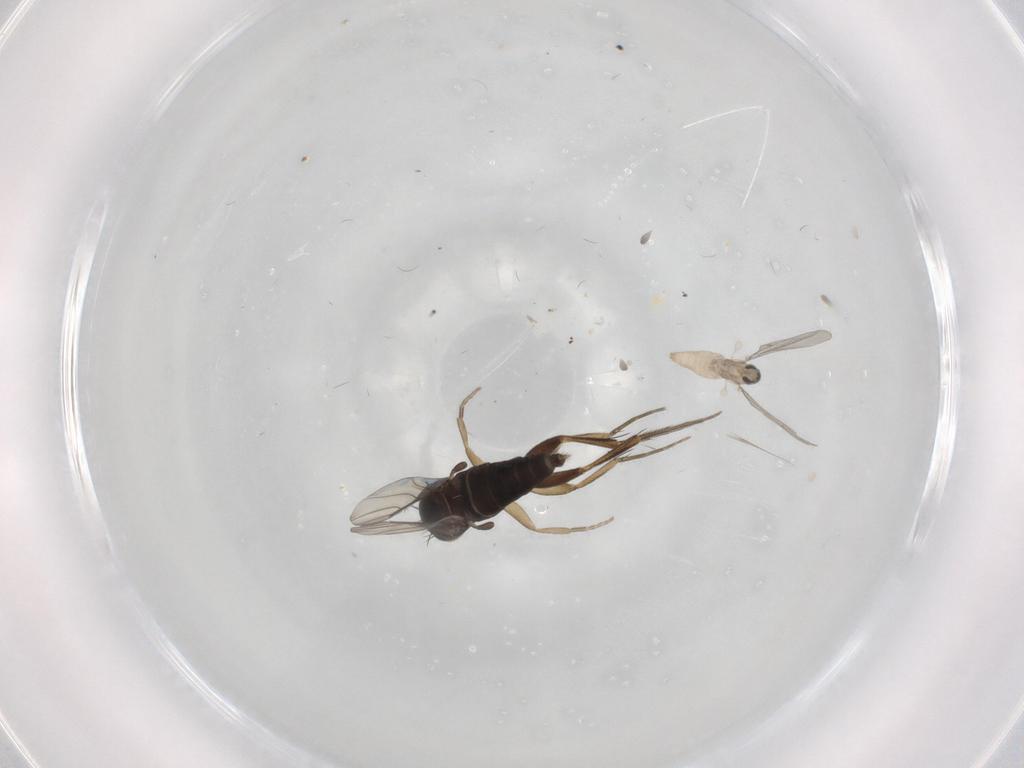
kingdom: Animalia
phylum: Arthropoda
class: Insecta
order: Diptera
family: Phoridae
